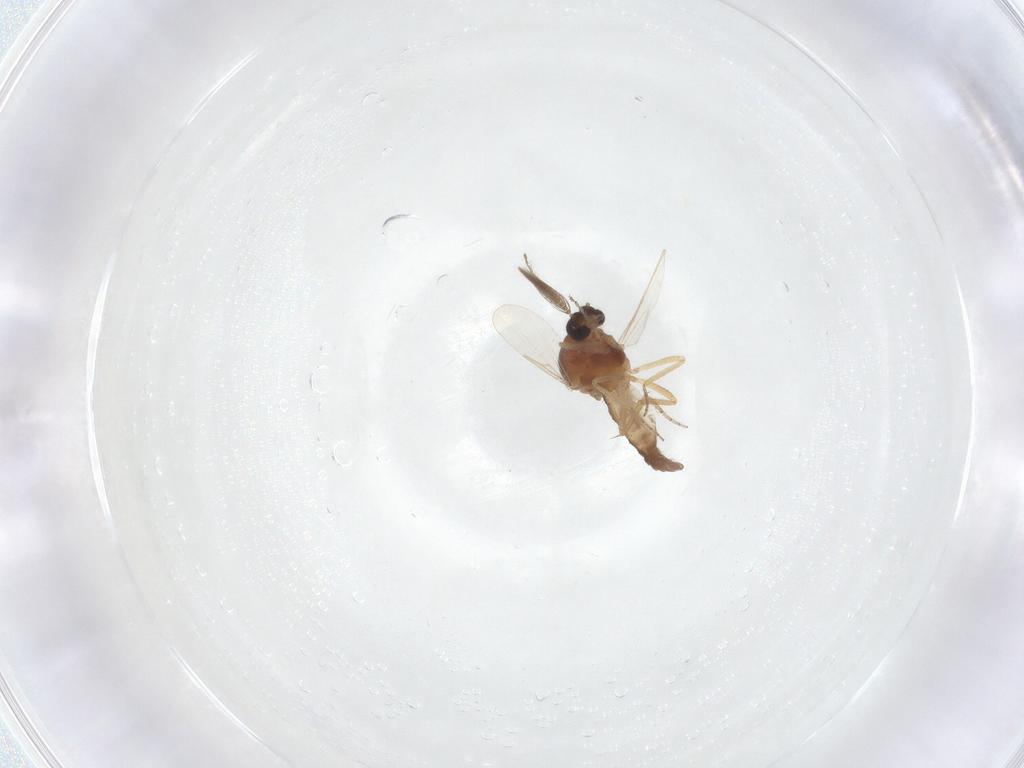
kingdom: Animalia
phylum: Arthropoda
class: Insecta
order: Diptera
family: Ceratopogonidae
